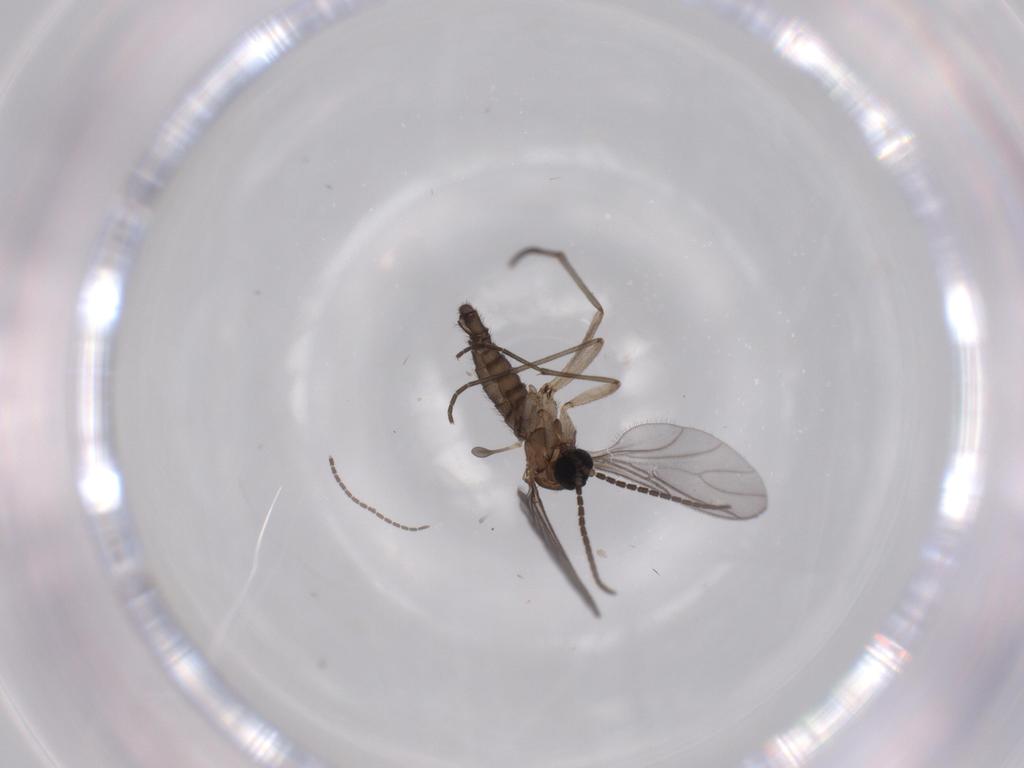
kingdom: Animalia
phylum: Arthropoda
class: Insecta
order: Diptera
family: Sciaridae
